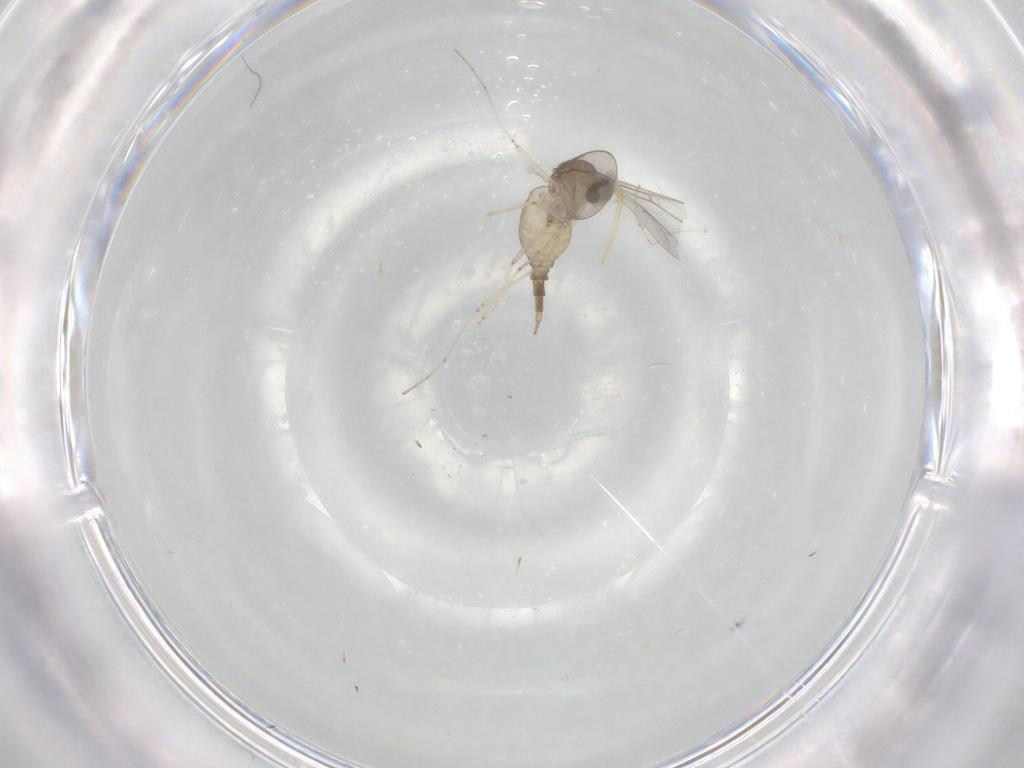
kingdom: Animalia
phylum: Arthropoda
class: Insecta
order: Diptera
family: Cecidomyiidae
